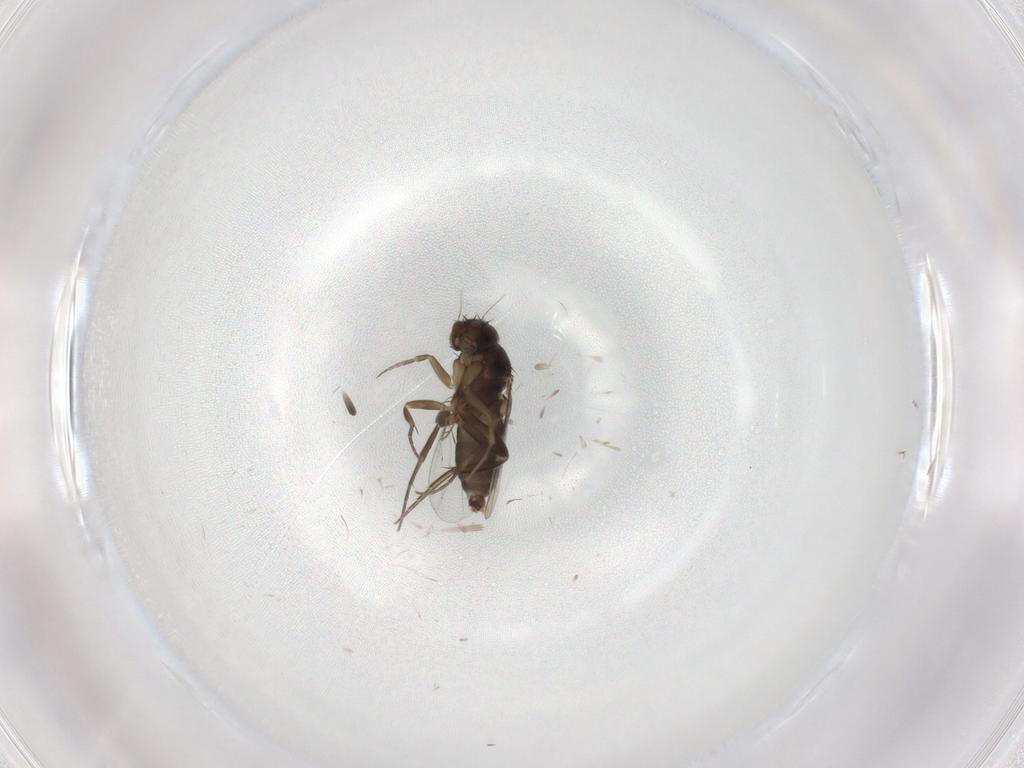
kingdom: Animalia
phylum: Arthropoda
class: Insecta
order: Diptera
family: Phoridae
